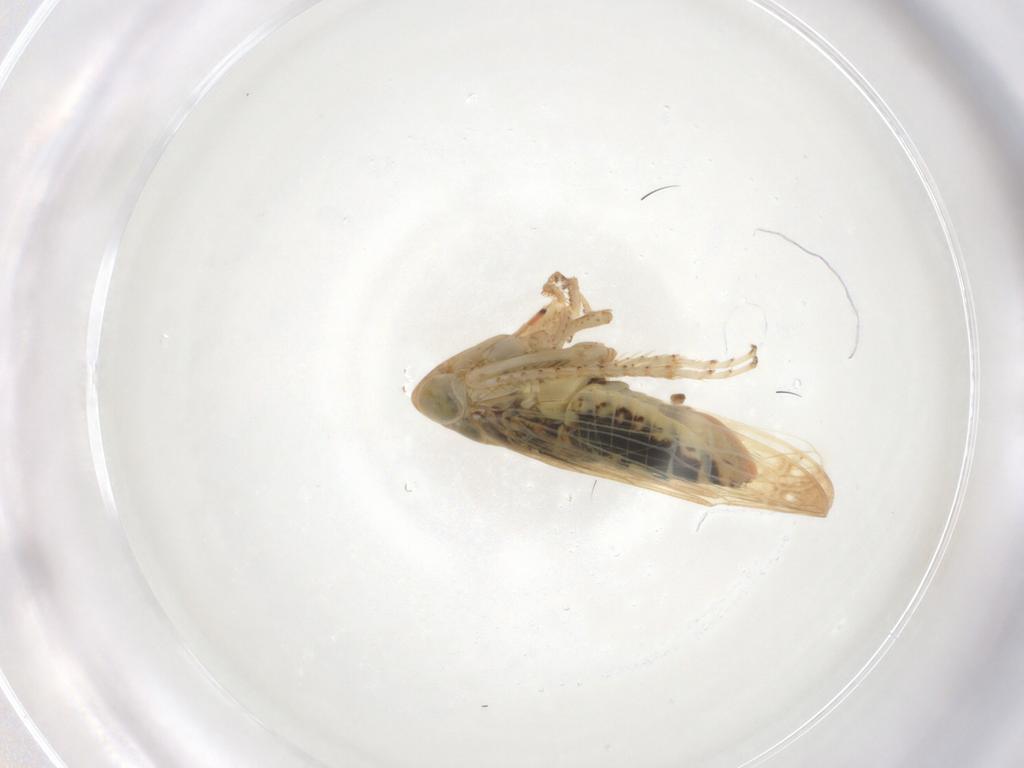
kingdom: Animalia
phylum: Arthropoda
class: Insecta
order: Hemiptera
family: Cicadellidae
